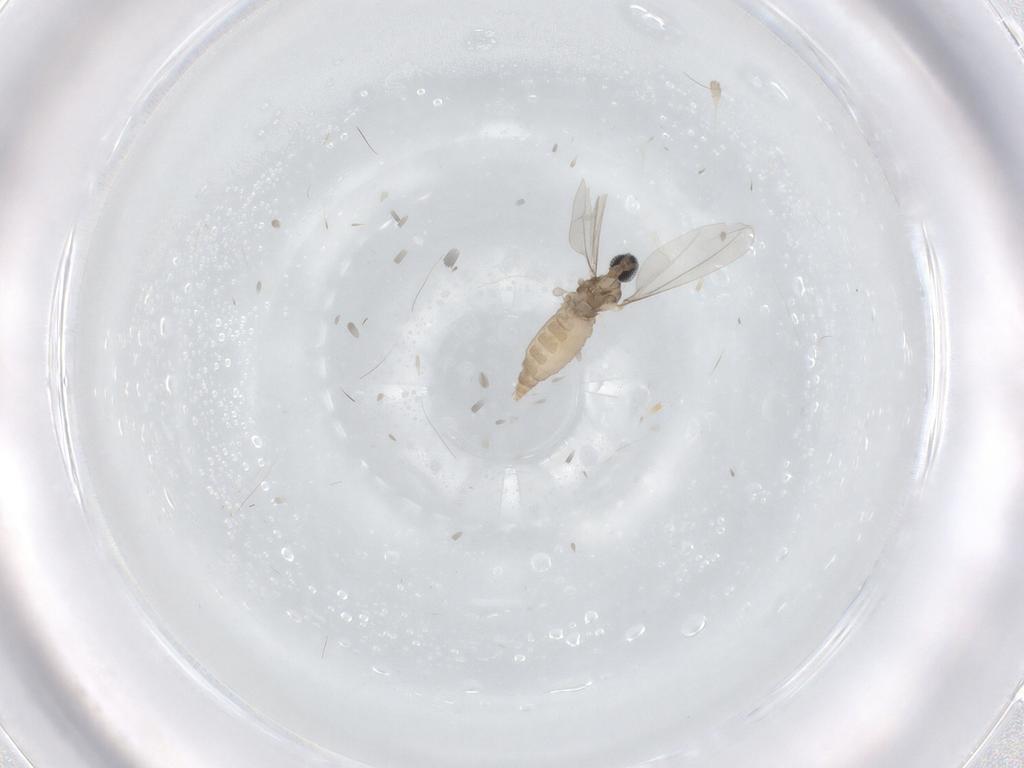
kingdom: Animalia
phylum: Arthropoda
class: Insecta
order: Diptera
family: Cecidomyiidae
